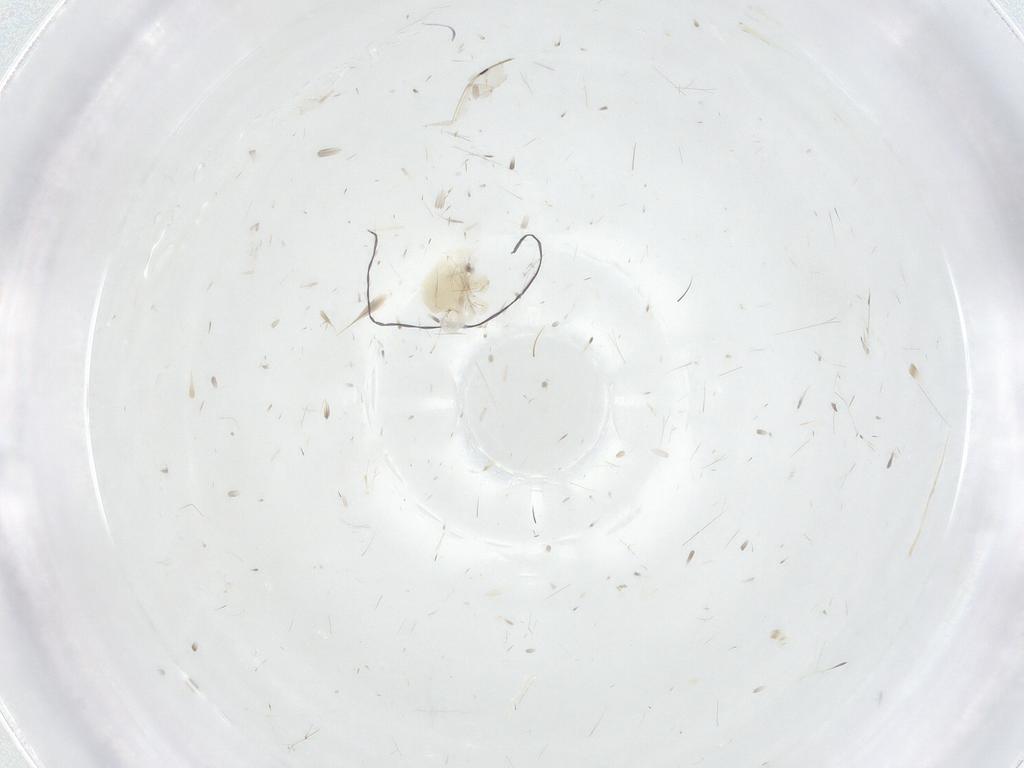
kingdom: Animalia
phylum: Arthropoda
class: Arachnida
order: Trombidiformes
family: Anystidae
